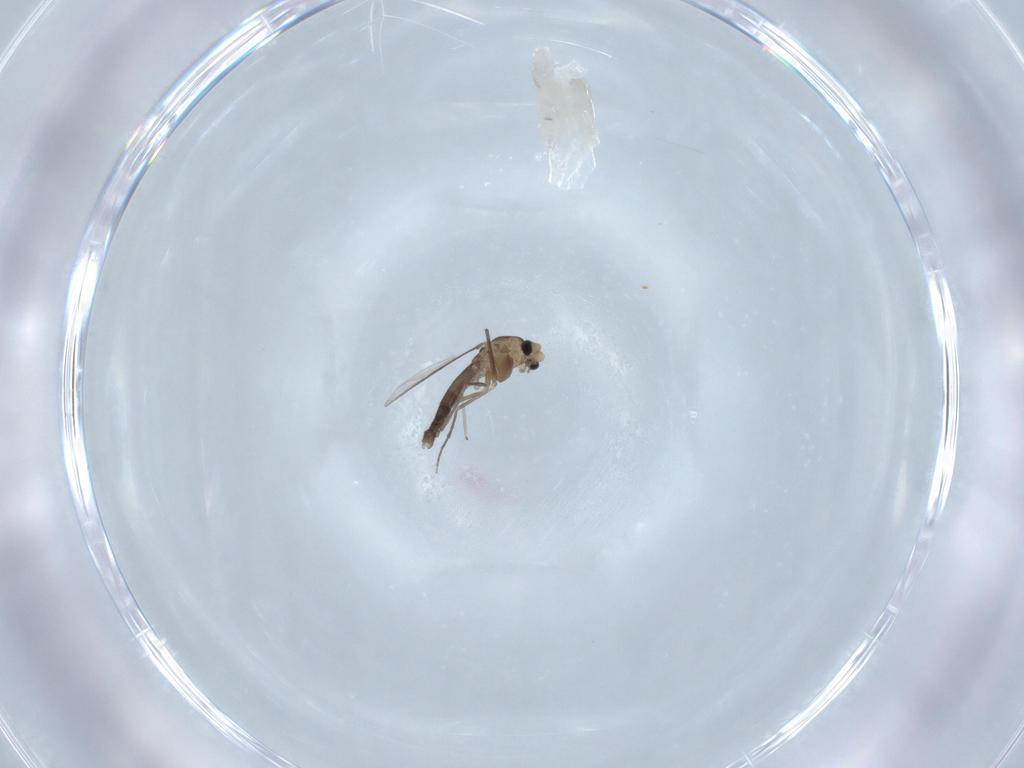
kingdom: Animalia
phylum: Arthropoda
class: Insecta
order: Diptera
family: Chironomidae
